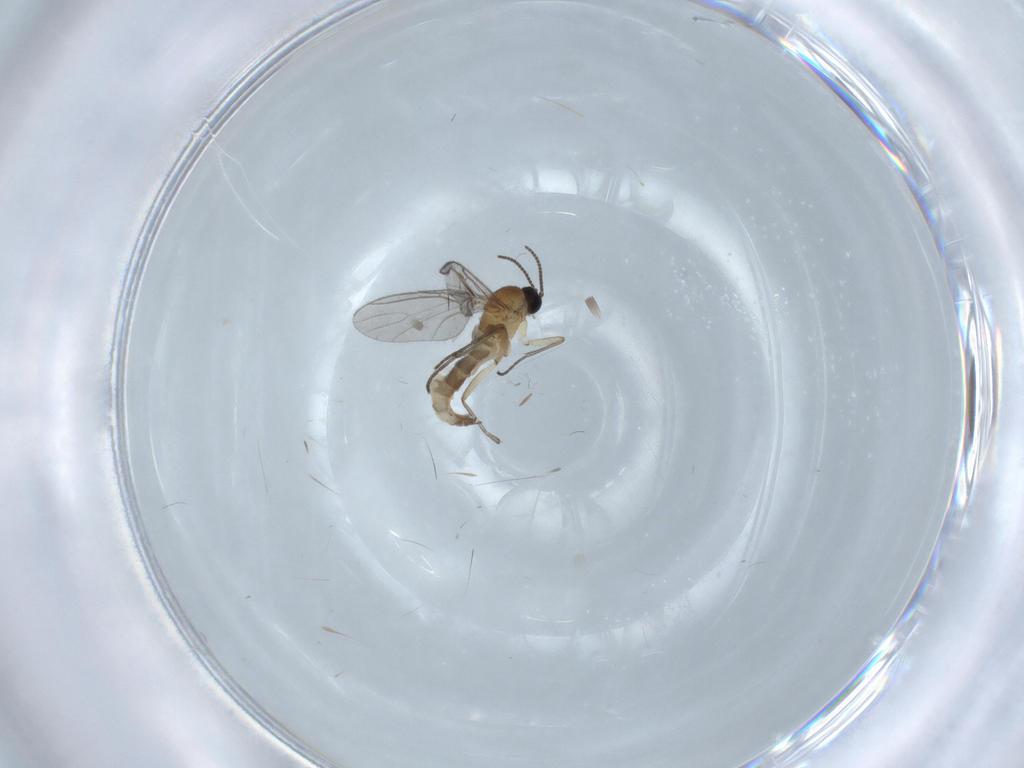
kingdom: Animalia
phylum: Arthropoda
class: Insecta
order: Diptera
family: Sciaridae
